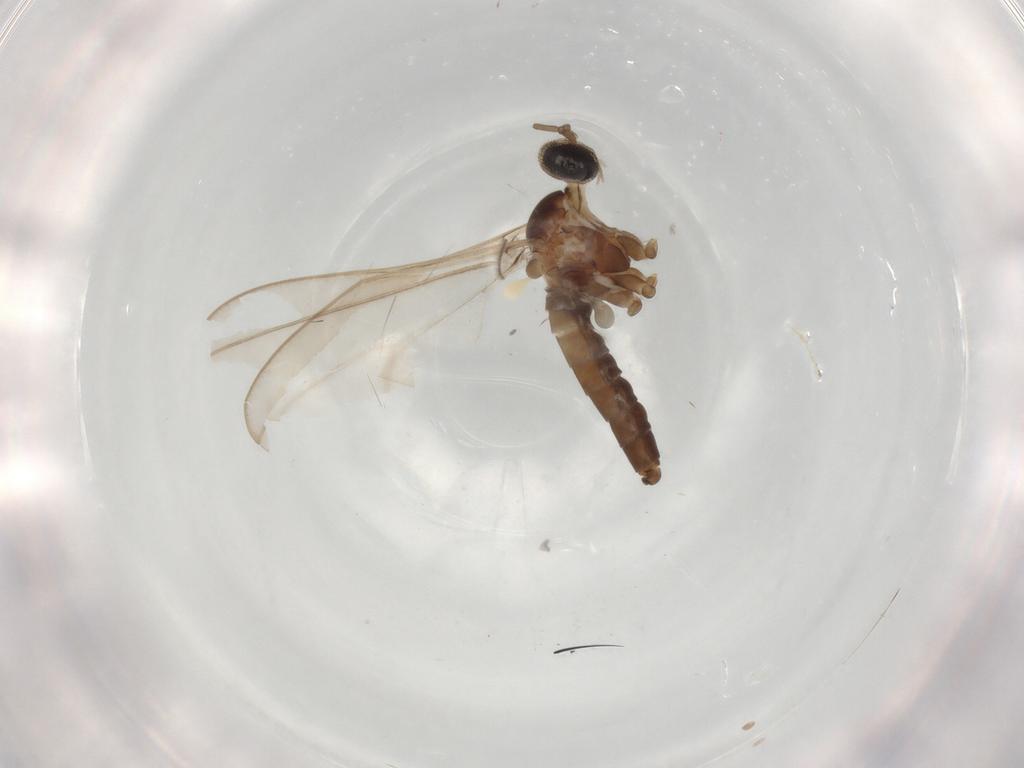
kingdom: Animalia
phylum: Arthropoda
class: Insecta
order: Diptera
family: Cecidomyiidae
